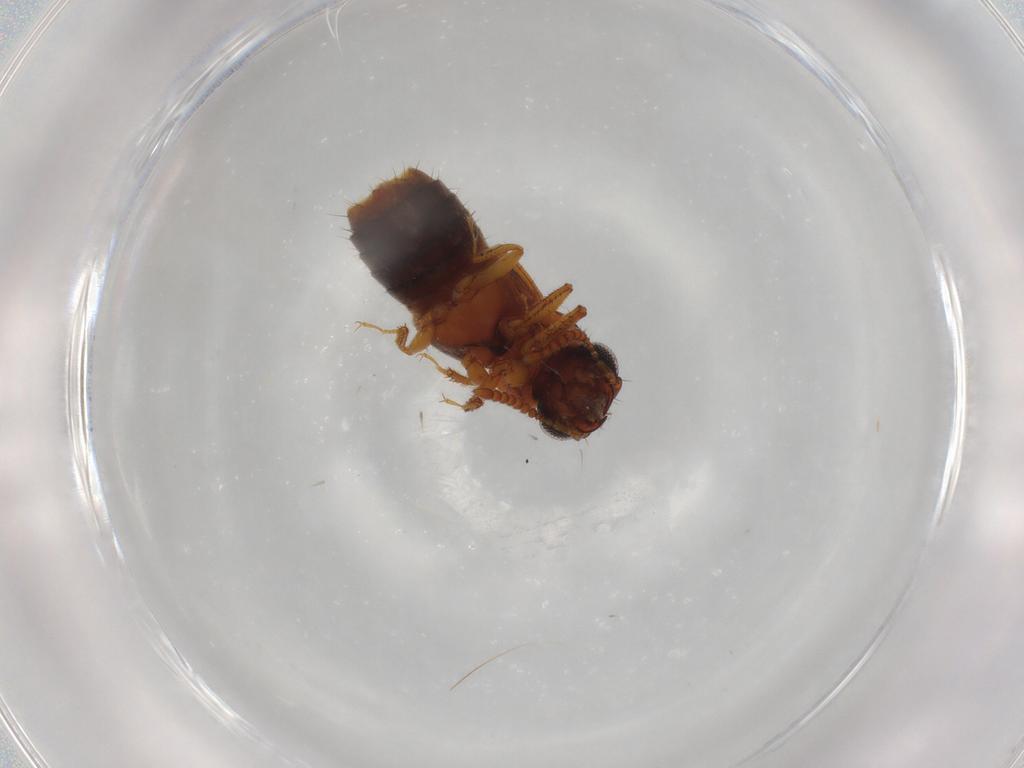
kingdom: Animalia
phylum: Arthropoda
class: Insecta
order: Coleoptera
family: Staphylinidae
